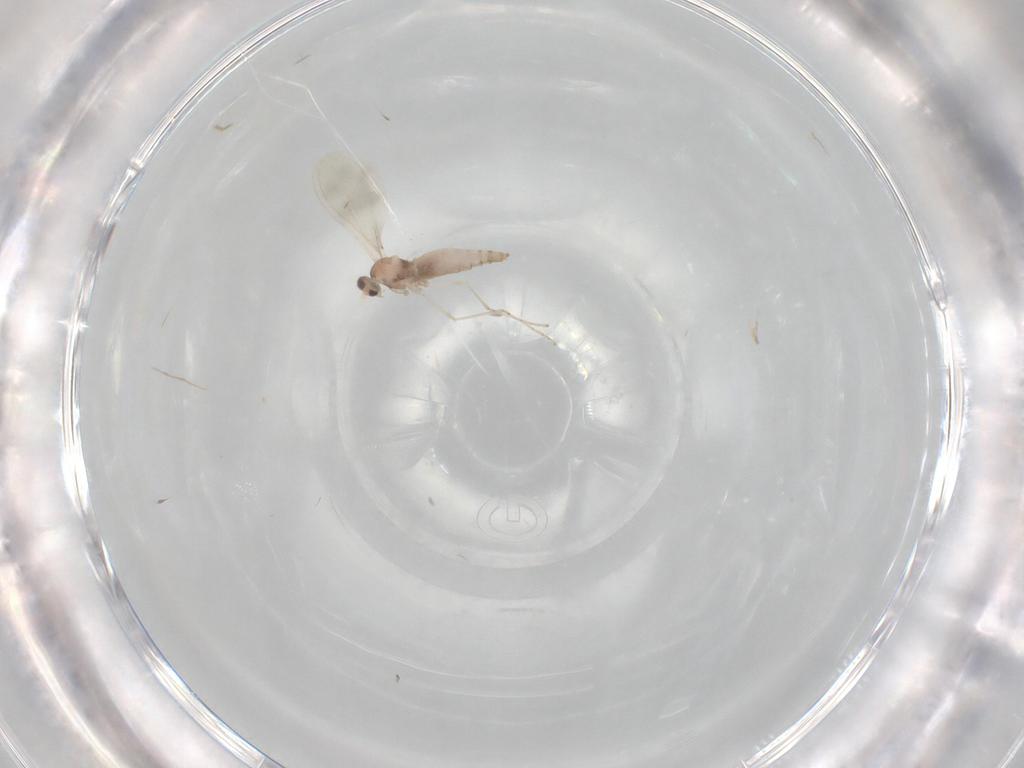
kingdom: Animalia
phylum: Arthropoda
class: Insecta
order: Diptera
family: Cecidomyiidae
